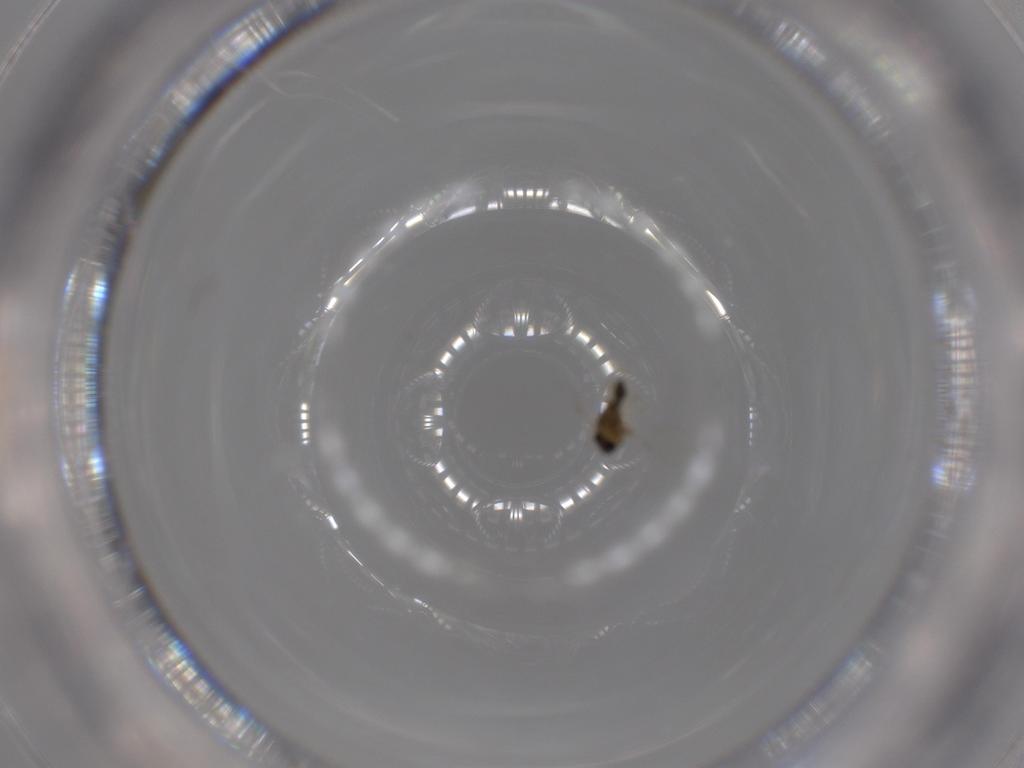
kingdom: Animalia
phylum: Arthropoda
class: Insecta
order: Diptera
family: Chironomidae
